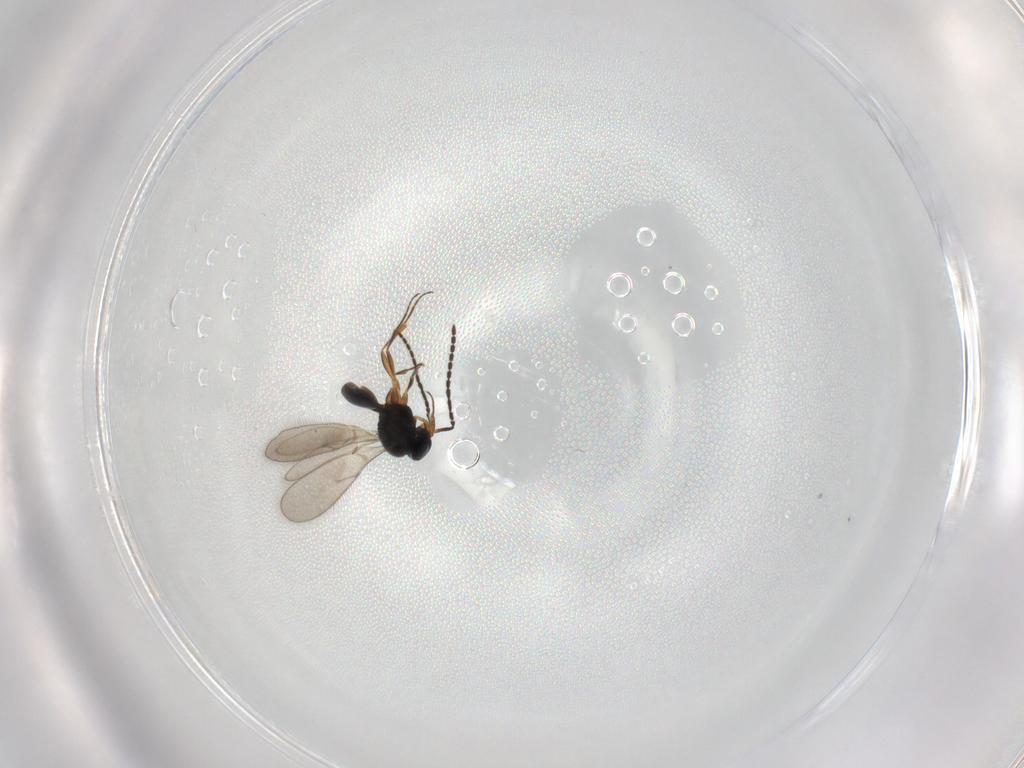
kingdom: Animalia
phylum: Arthropoda
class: Insecta
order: Hymenoptera
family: Scelionidae
